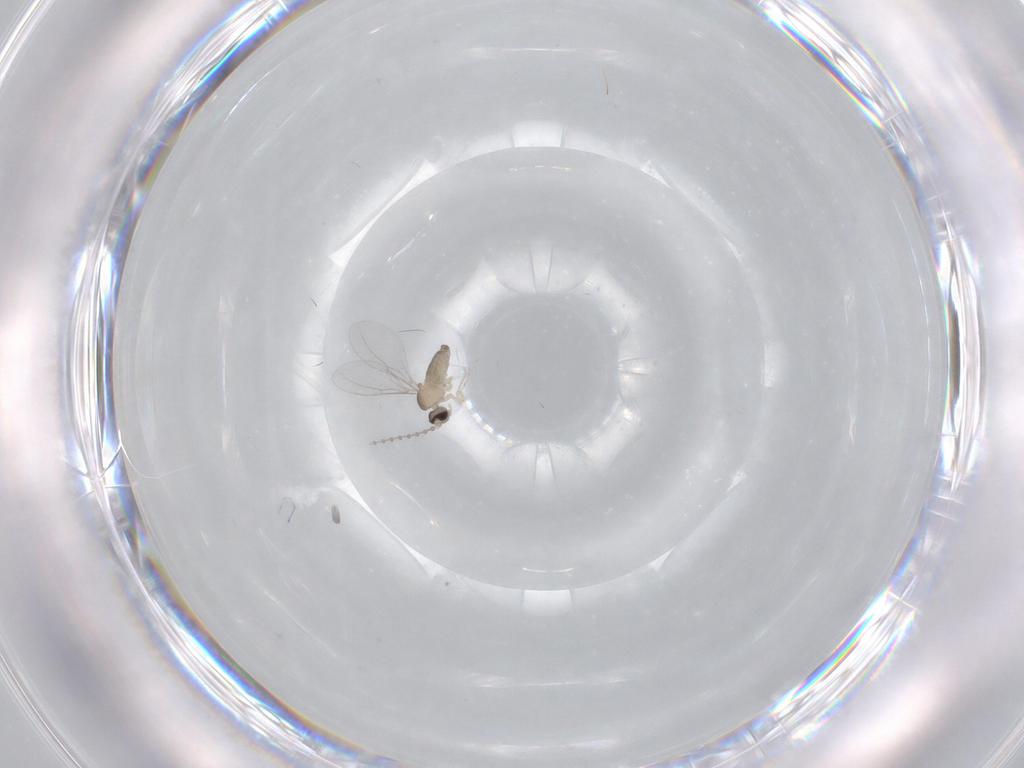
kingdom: Animalia
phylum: Arthropoda
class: Insecta
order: Diptera
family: Cecidomyiidae
